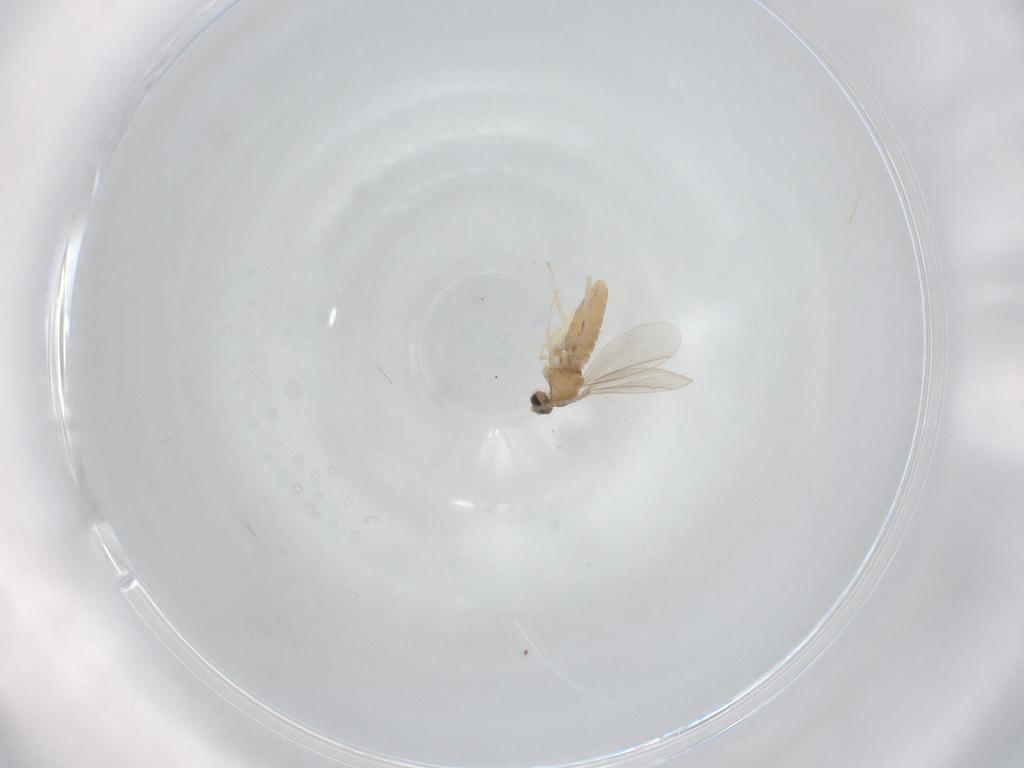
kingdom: Animalia
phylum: Arthropoda
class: Insecta
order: Diptera
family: Cecidomyiidae
